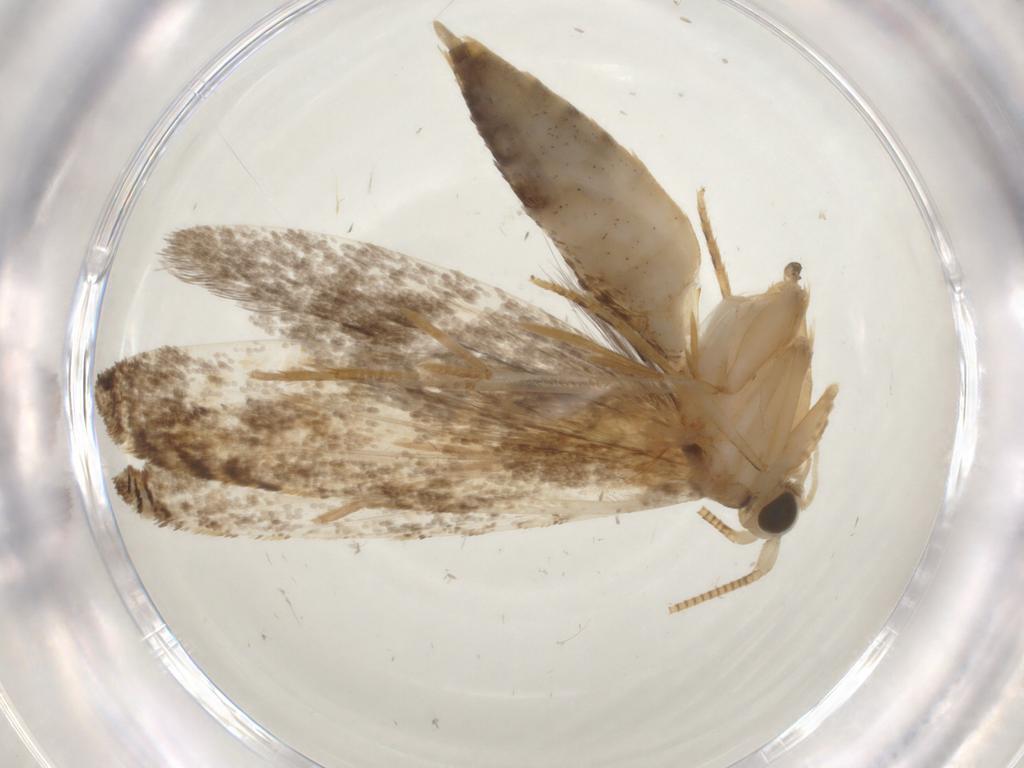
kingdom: Animalia
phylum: Arthropoda
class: Insecta
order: Lepidoptera
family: Nepticulidae
